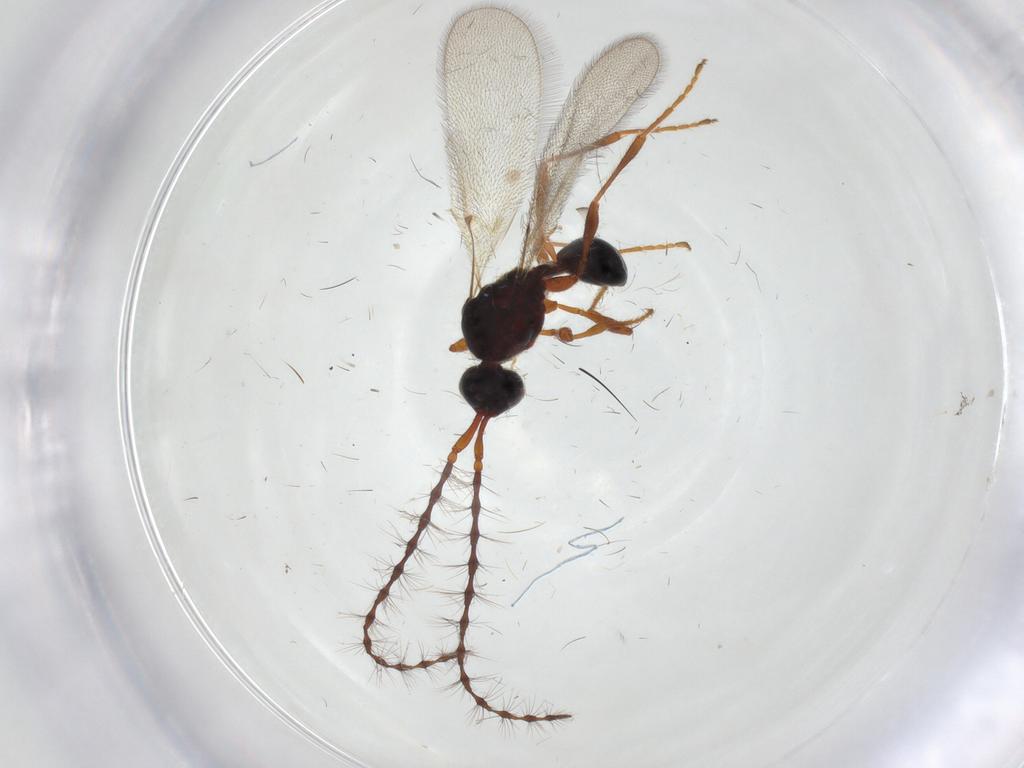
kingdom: Animalia
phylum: Arthropoda
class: Insecta
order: Hymenoptera
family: Diapriidae
